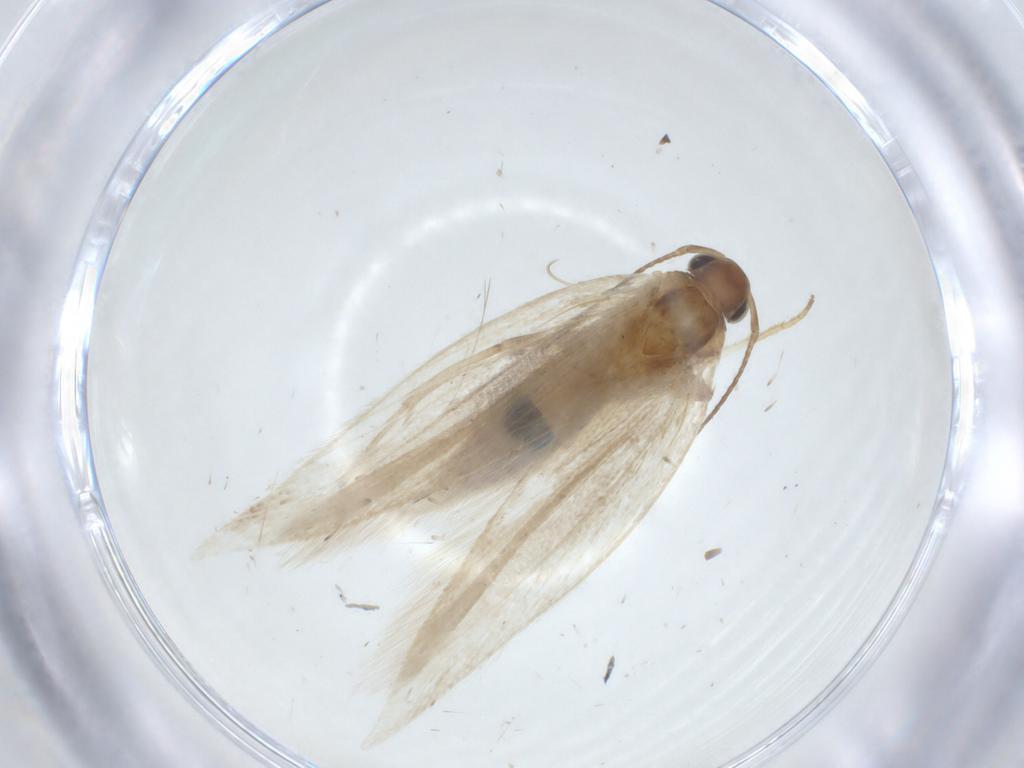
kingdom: Animalia
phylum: Arthropoda
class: Insecta
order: Lepidoptera
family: Gelechiidae
